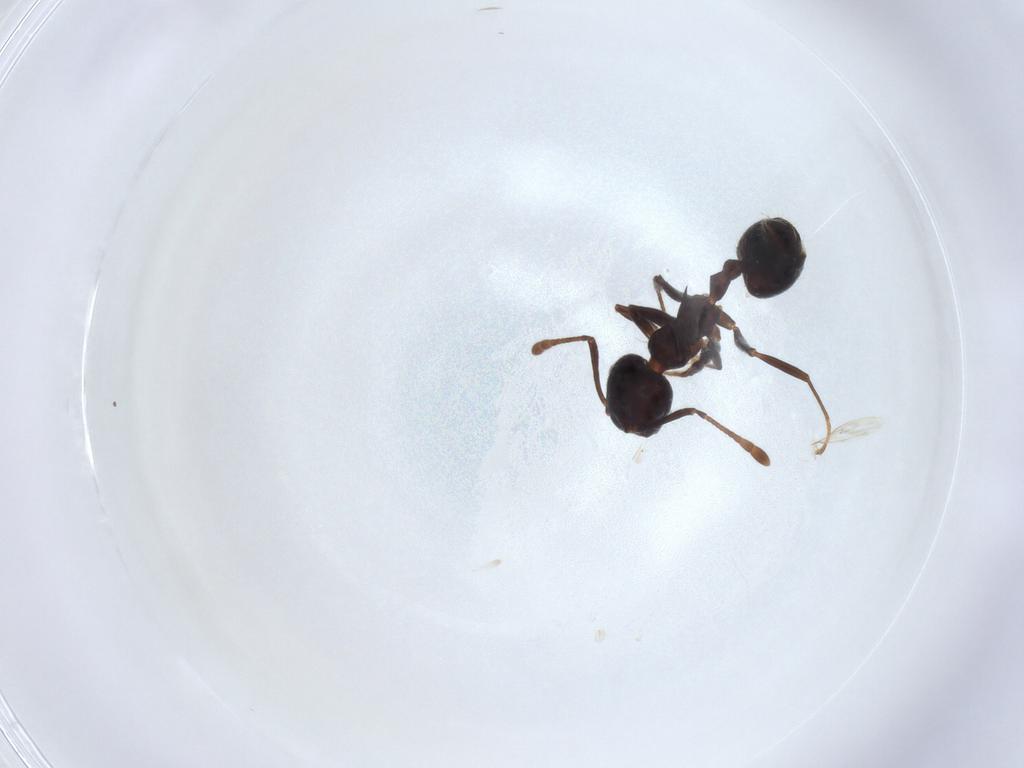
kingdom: Animalia
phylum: Arthropoda
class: Insecta
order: Hymenoptera
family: Formicidae
